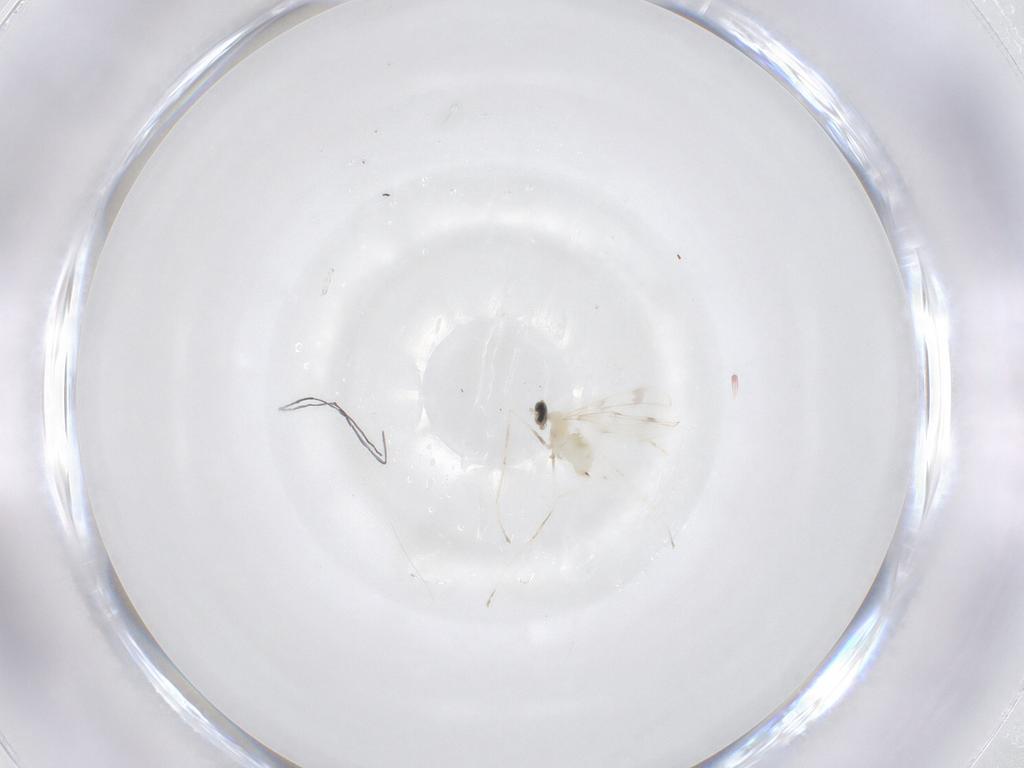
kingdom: Animalia
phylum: Arthropoda
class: Insecta
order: Diptera
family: Cecidomyiidae
